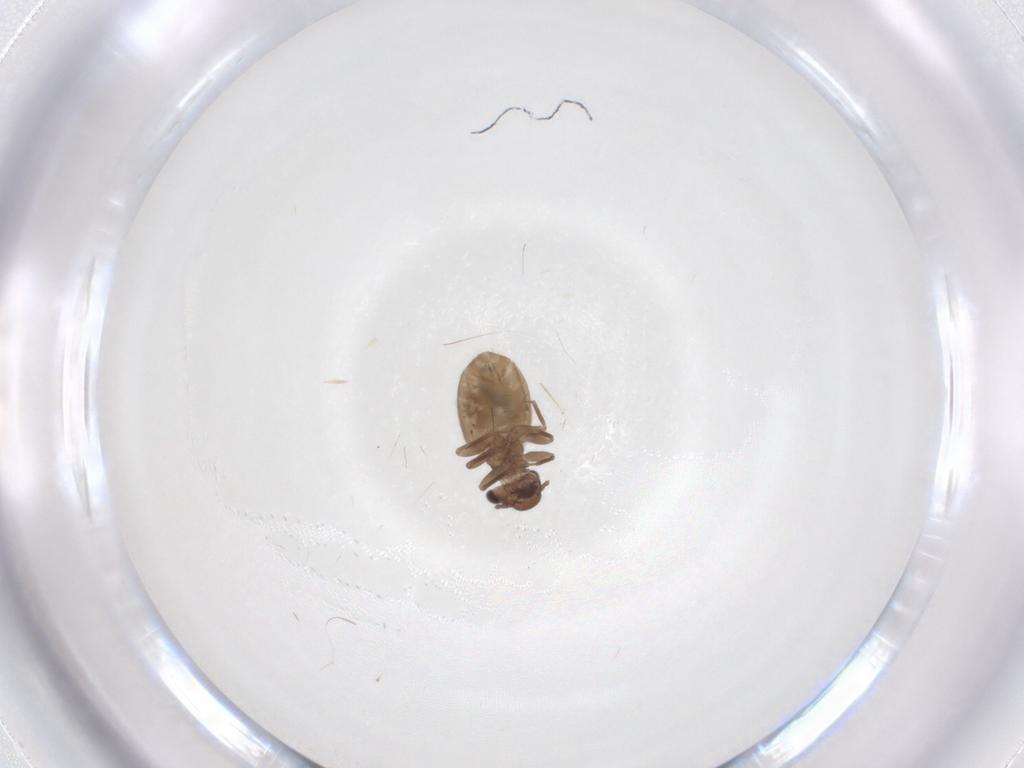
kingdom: Animalia
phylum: Arthropoda
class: Insecta
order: Psocodea
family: Trogiidae
